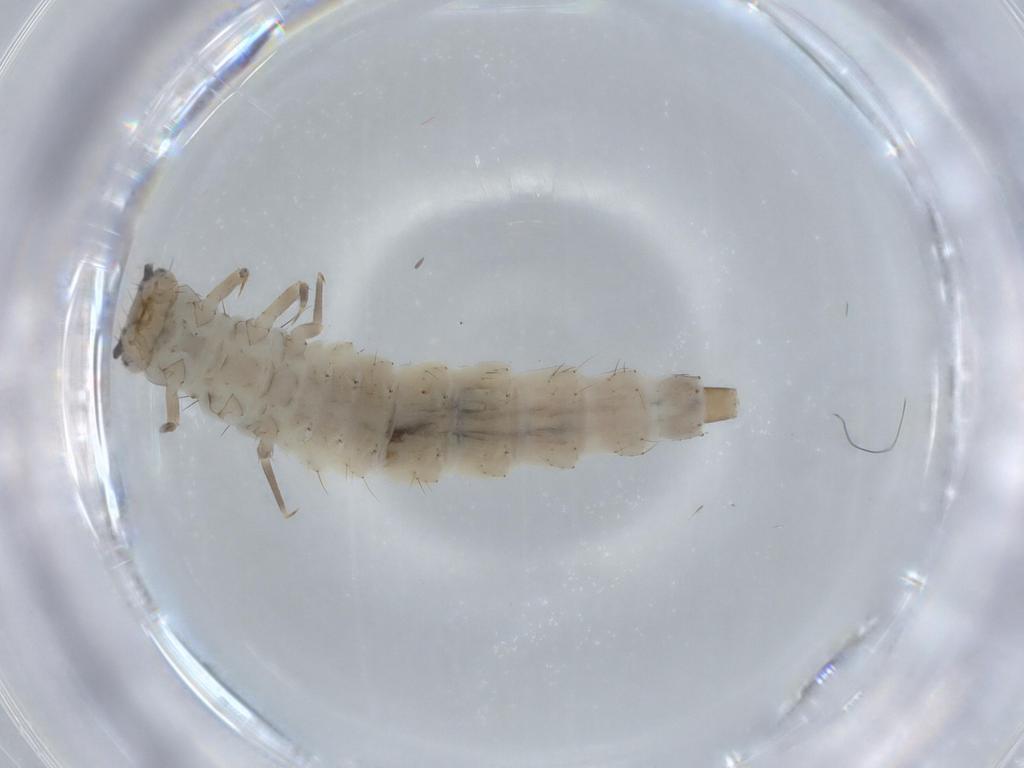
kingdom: Animalia
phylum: Arthropoda
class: Insecta
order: Coleoptera
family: Silvanidae
